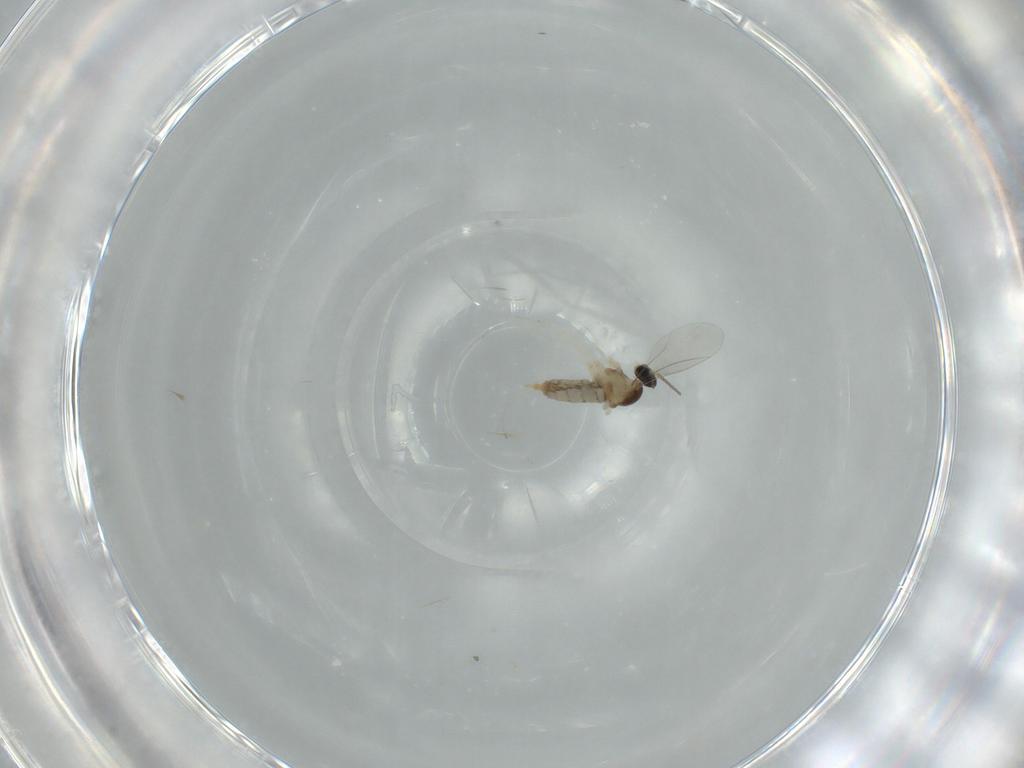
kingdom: Animalia
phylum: Arthropoda
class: Insecta
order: Diptera
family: Cecidomyiidae
